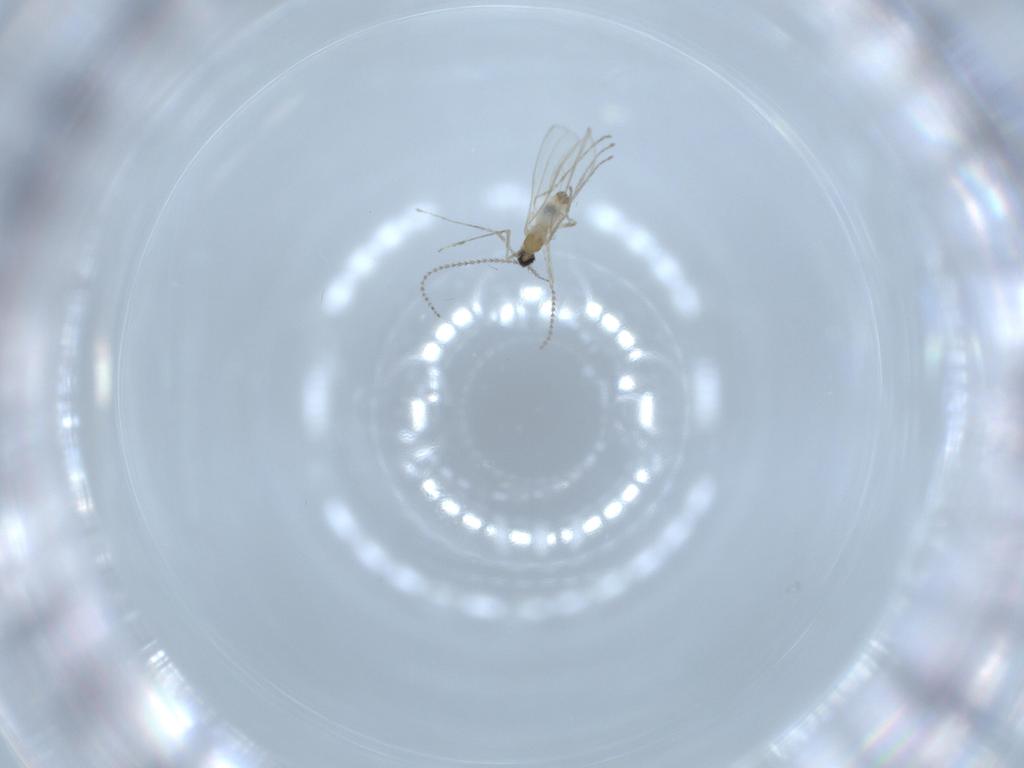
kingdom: Animalia
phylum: Arthropoda
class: Insecta
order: Diptera
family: Cecidomyiidae
